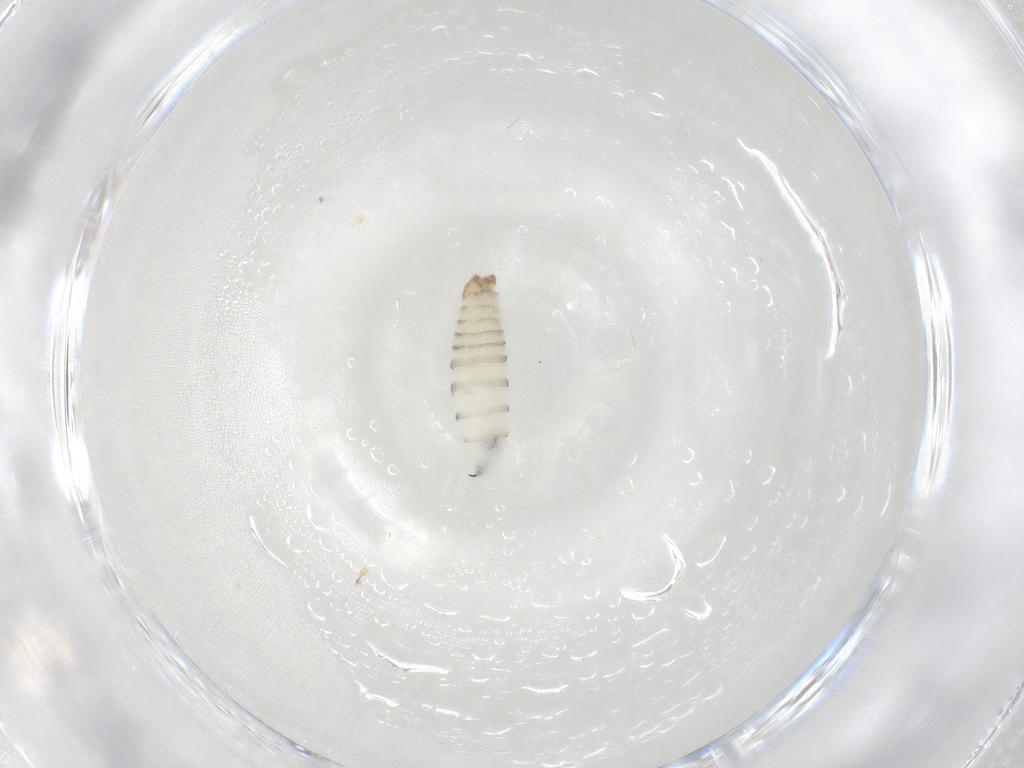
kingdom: Animalia
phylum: Arthropoda
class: Insecta
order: Diptera
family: Sarcophagidae
